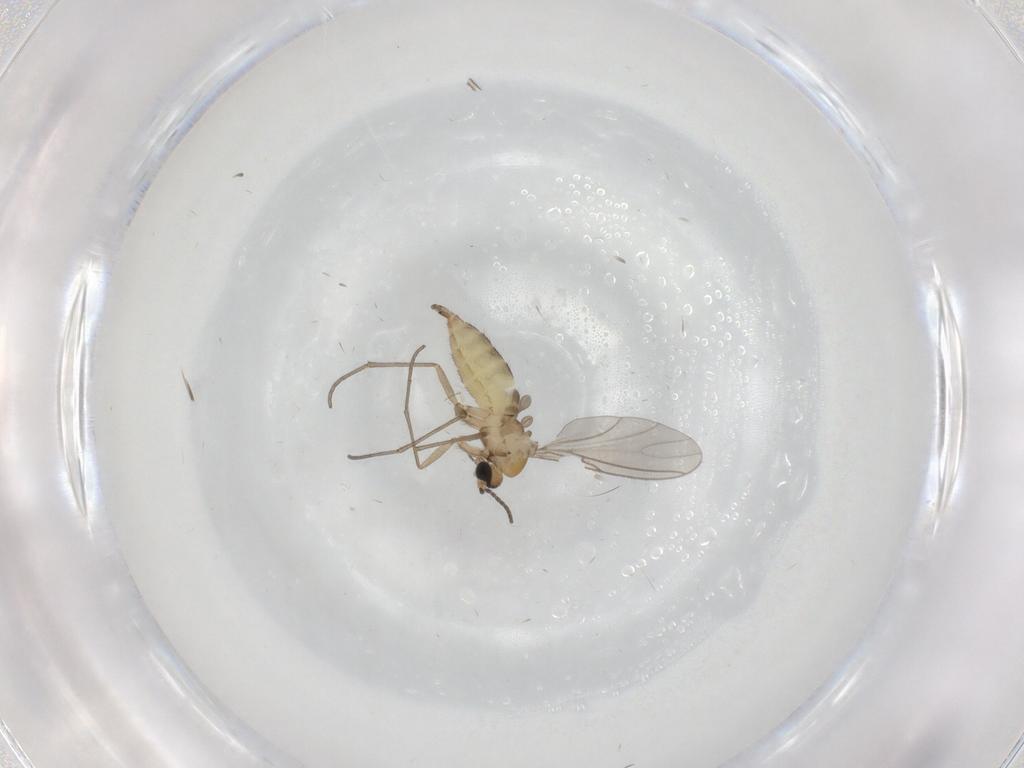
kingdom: Animalia
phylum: Arthropoda
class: Insecta
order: Diptera
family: Sciaridae
